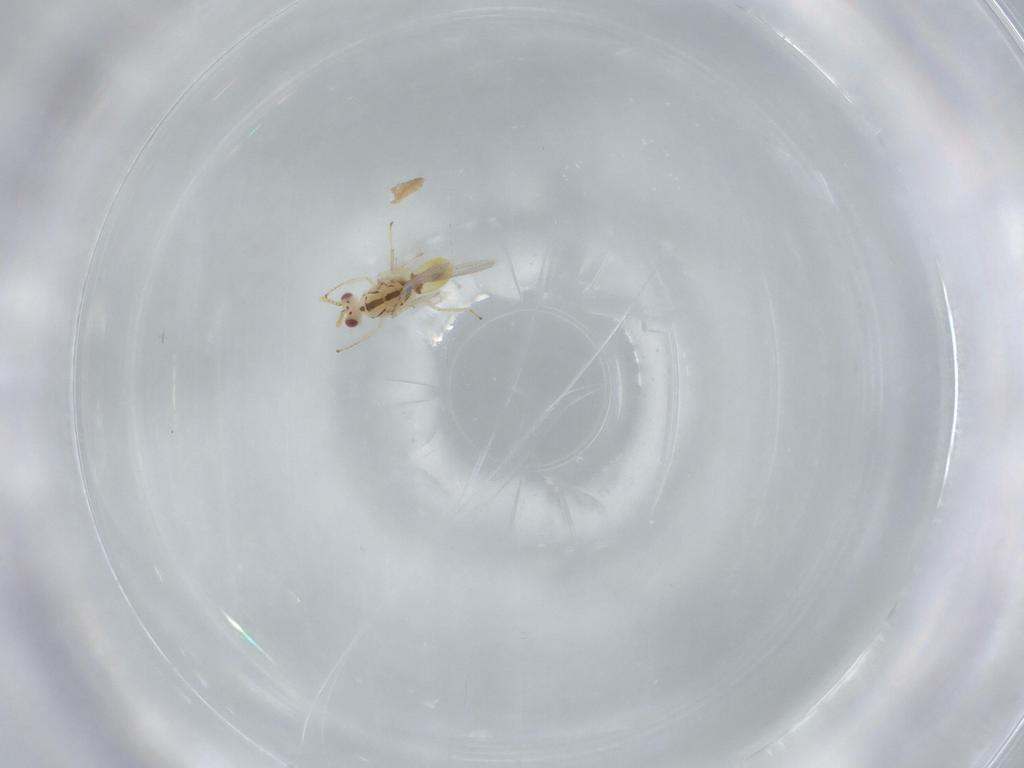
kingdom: Animalia
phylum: Arthropoda
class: Insecta
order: Hymenoptera
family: Eulophidae
